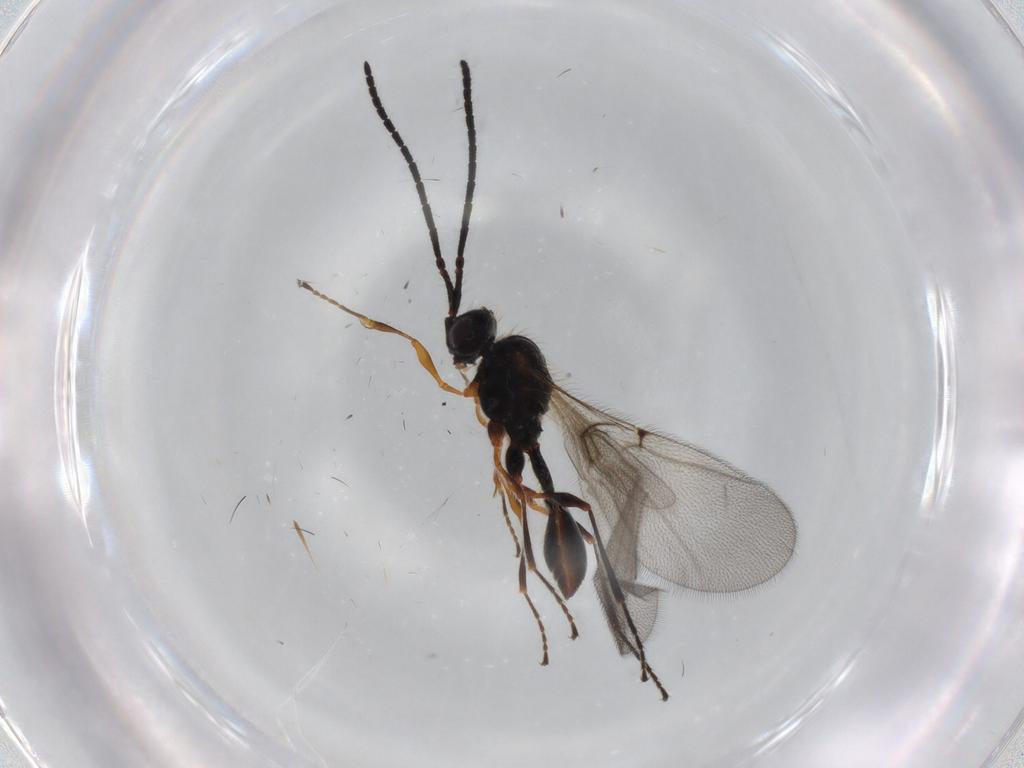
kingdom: Animalia
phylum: Arthropoda
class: Insecta
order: Hymenoptera
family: Diapriidae
